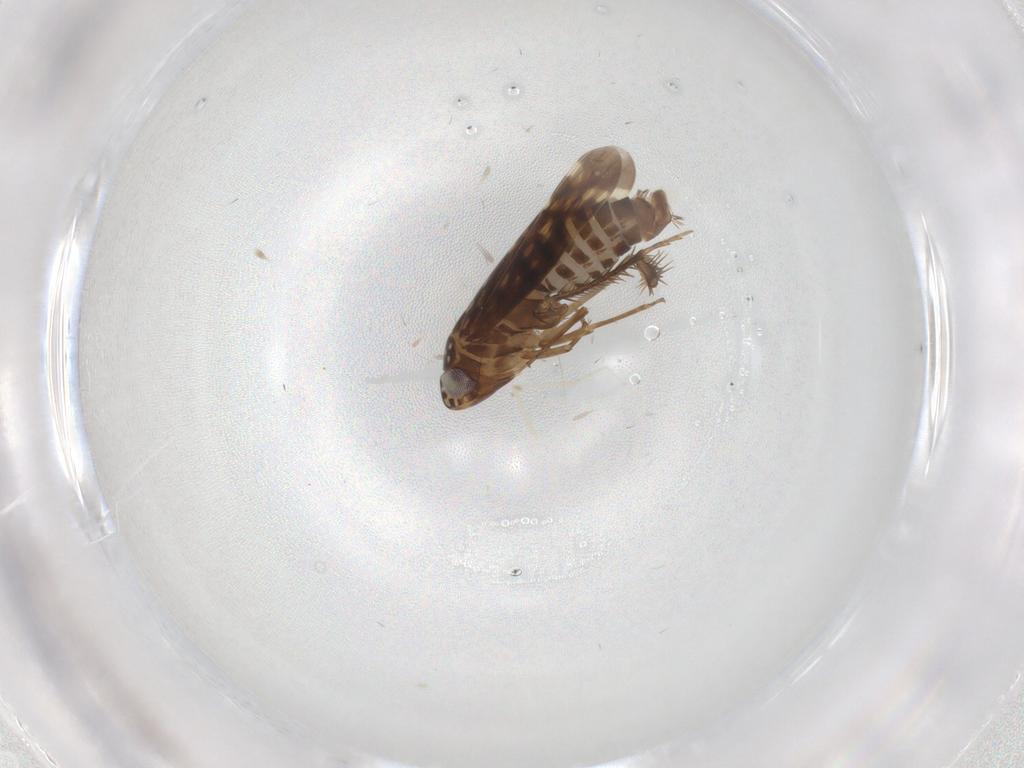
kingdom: Animalia
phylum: Arthropoda
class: Insecta
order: Hemiptera
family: Cicadellidae
